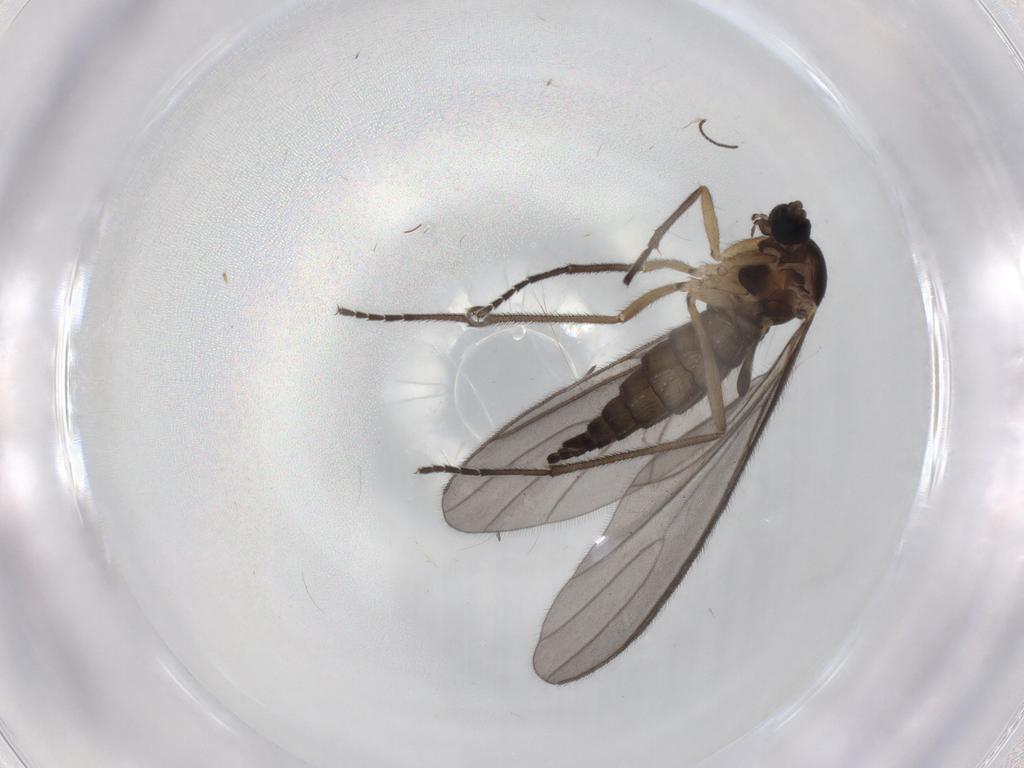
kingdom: Animalia
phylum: Arthropoda
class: Insecta
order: Diptera
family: Sciaridae
